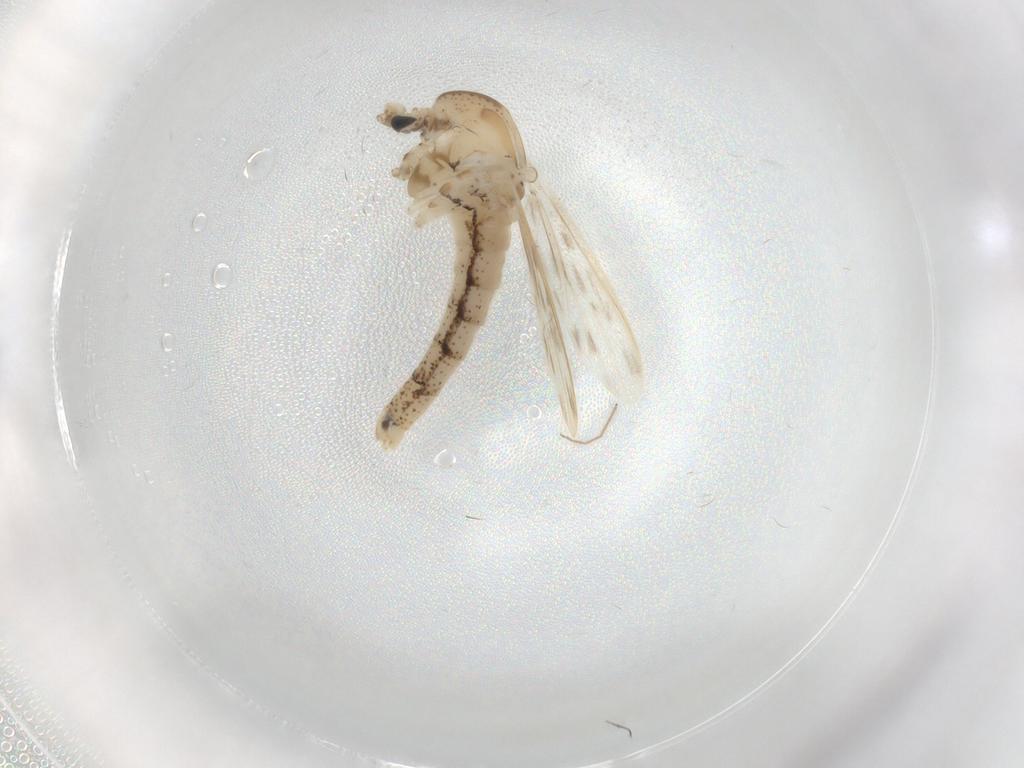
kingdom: Animalia
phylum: Arthropoda
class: Insecta
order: Diptera
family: Chaoboridae
